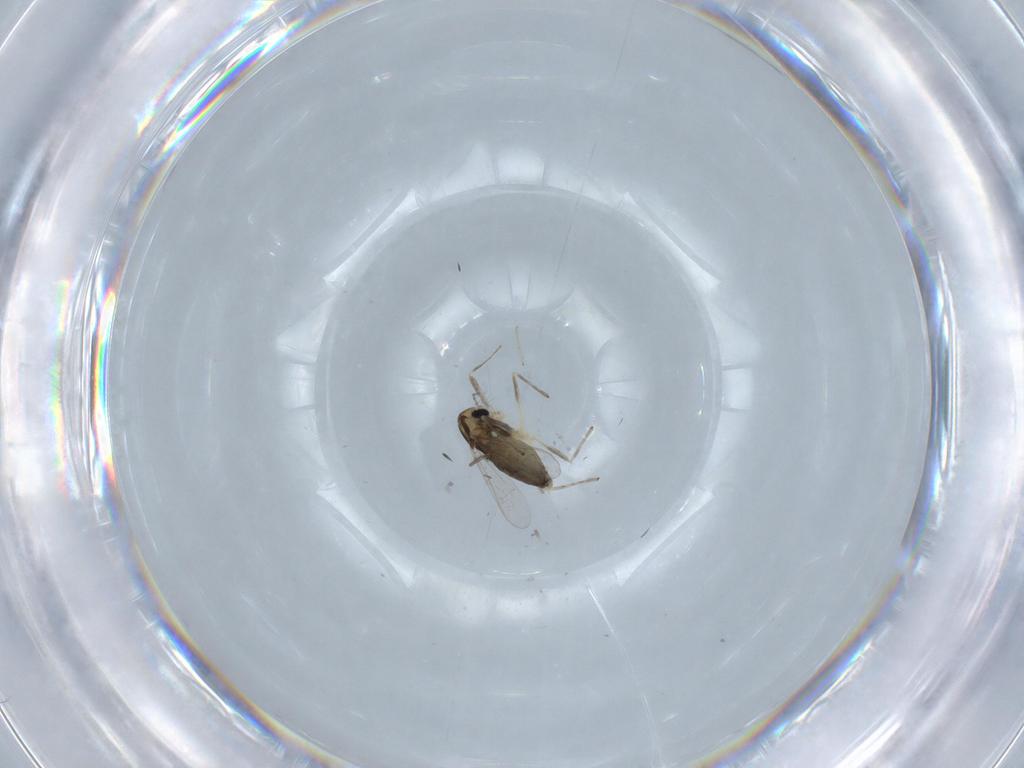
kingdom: Animalia
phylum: Arthropoda
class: Insecta
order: Diptera
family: Chironomidae
